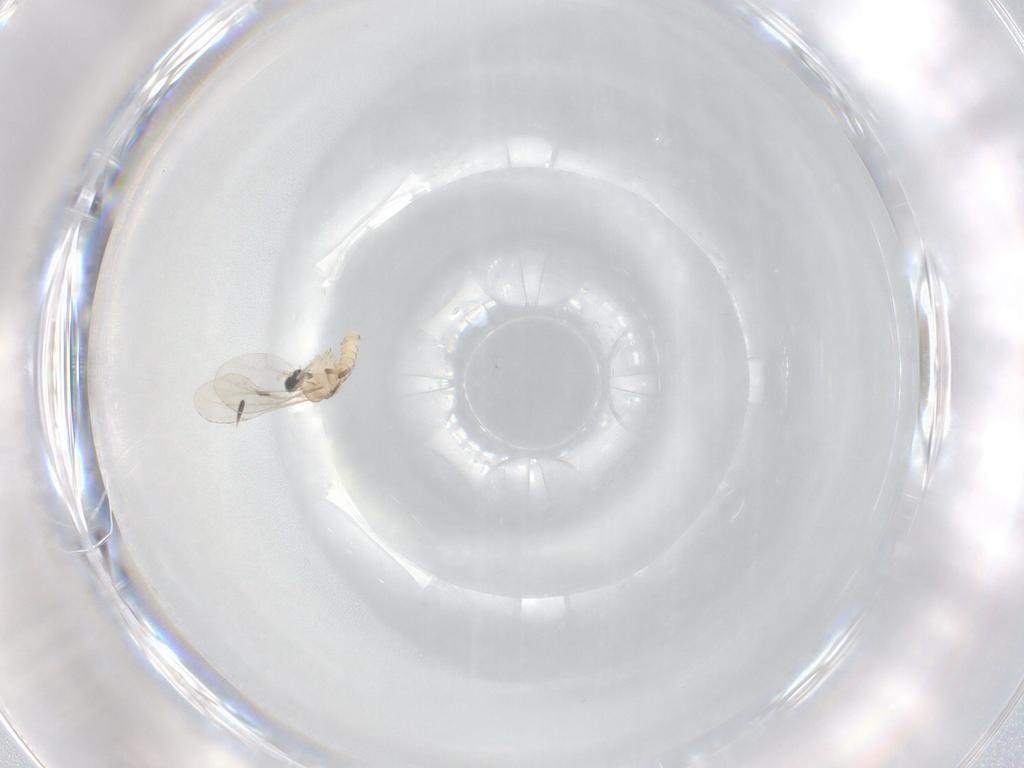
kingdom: Animalia
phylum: Arthropoda
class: Insecta
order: Diptera
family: Cecidomyiidae
